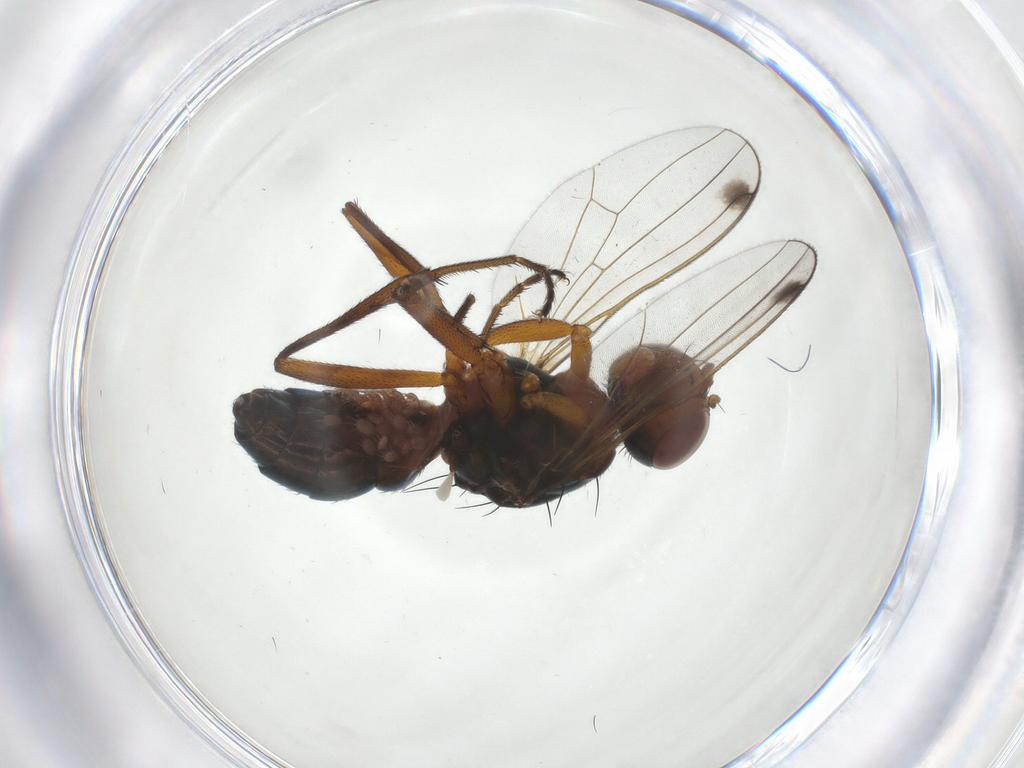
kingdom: Animalia
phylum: Arthropoda
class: Insecta
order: Diptera
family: Sepsidae
